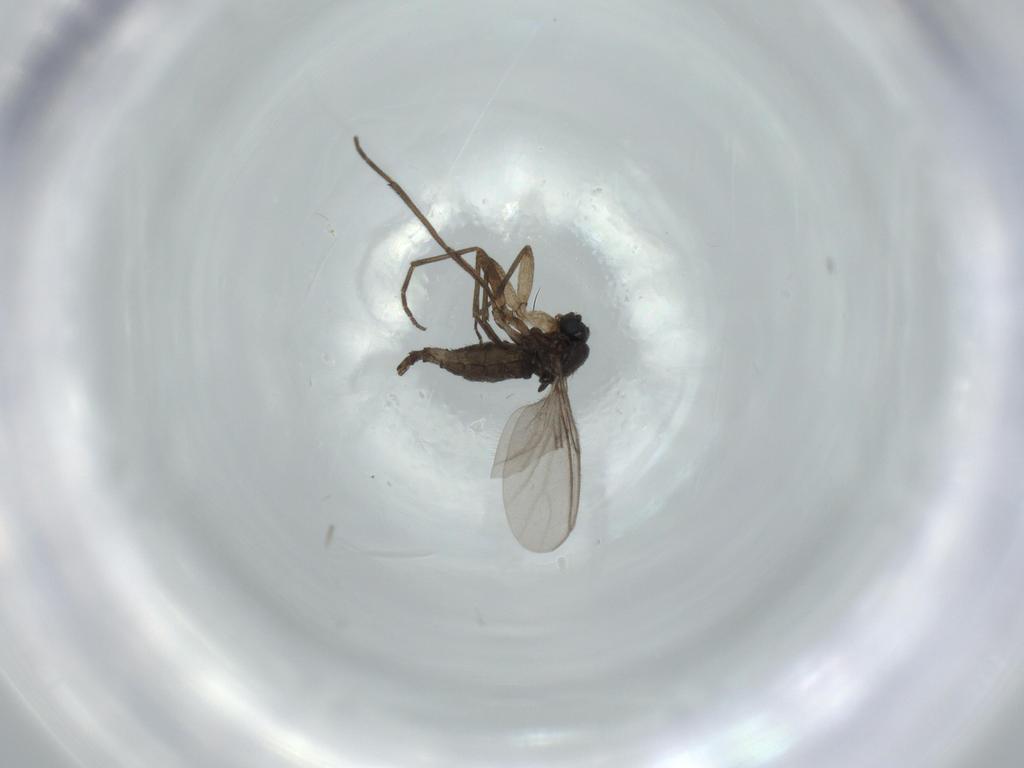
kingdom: Animalia
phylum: Arthropoda
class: Insecta
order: Diptera
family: Sciaridae
